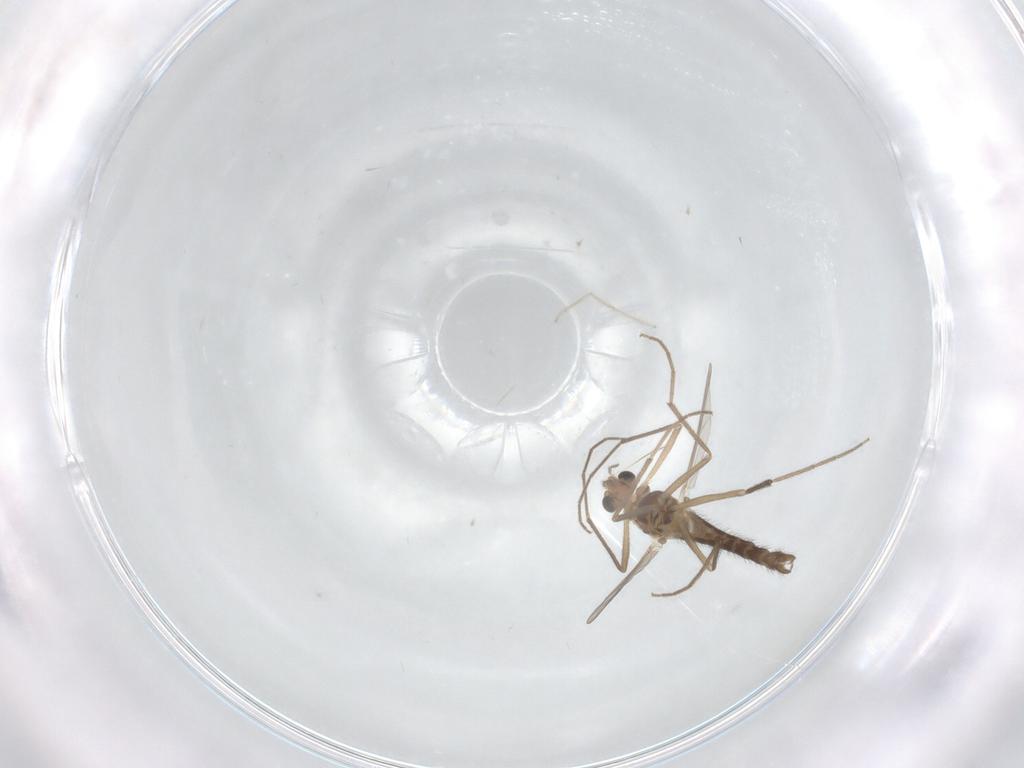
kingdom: Animalia
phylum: Arthropoda
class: Insecta
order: Diptera
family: Chironomidae
